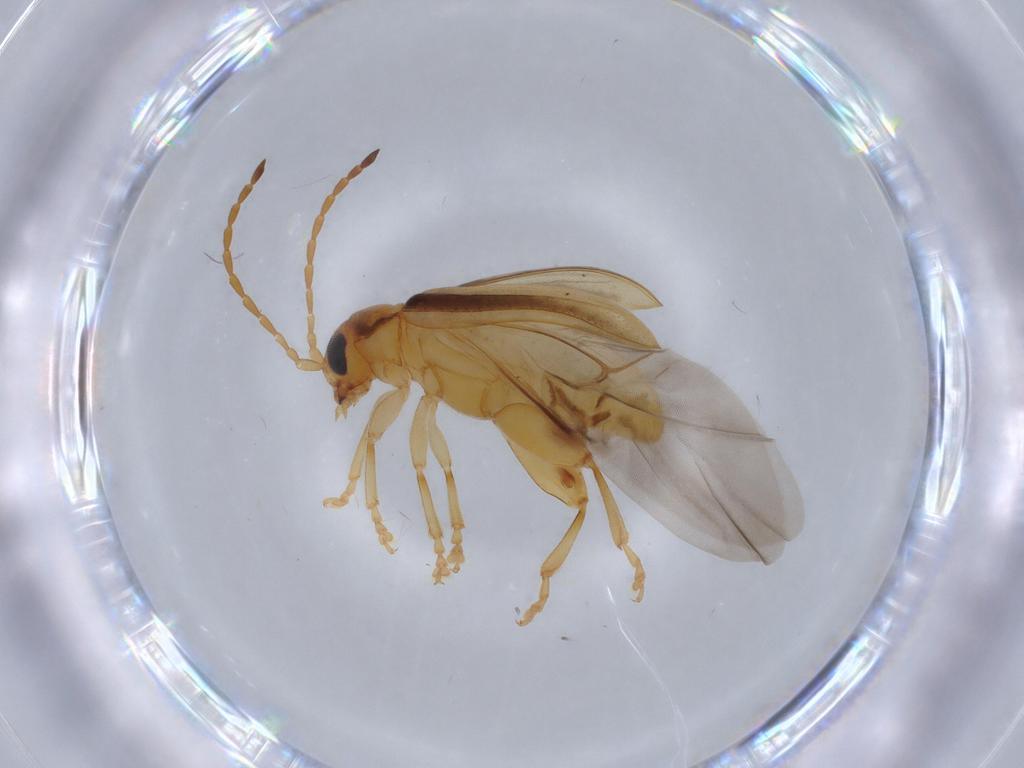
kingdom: Animalia
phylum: Arthropoda
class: Insecta
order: Coleoptera
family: Chrysomelidae
